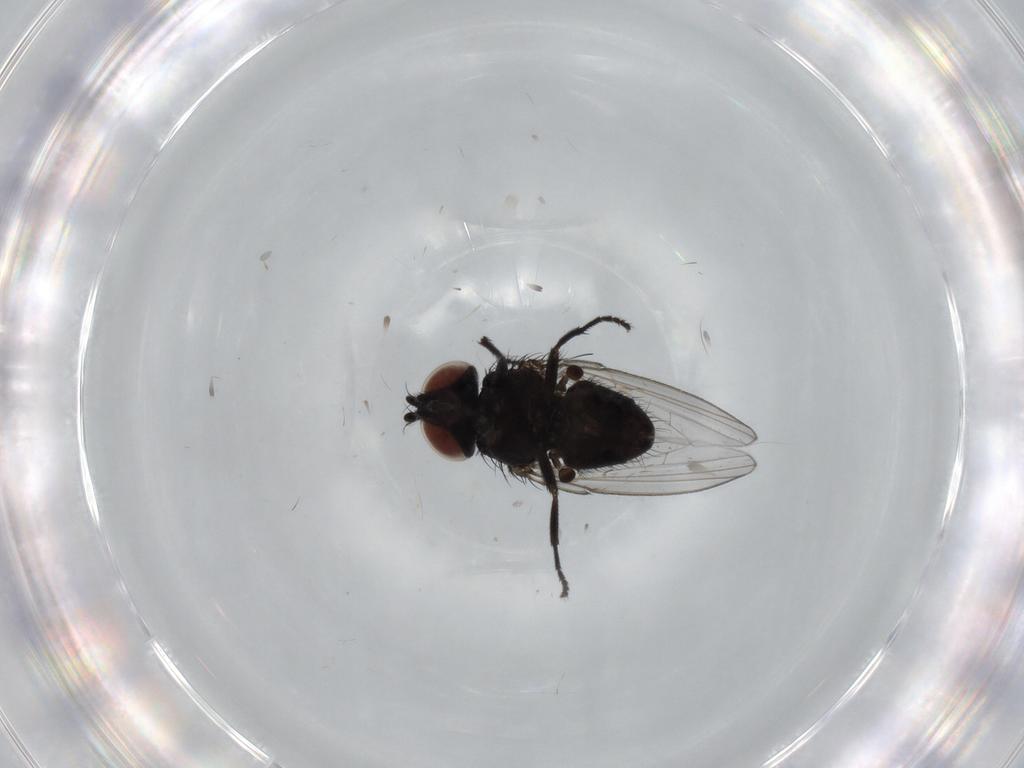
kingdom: Animalia
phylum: Arthropoda
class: Insecta
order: Diptera
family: Milichiidae
